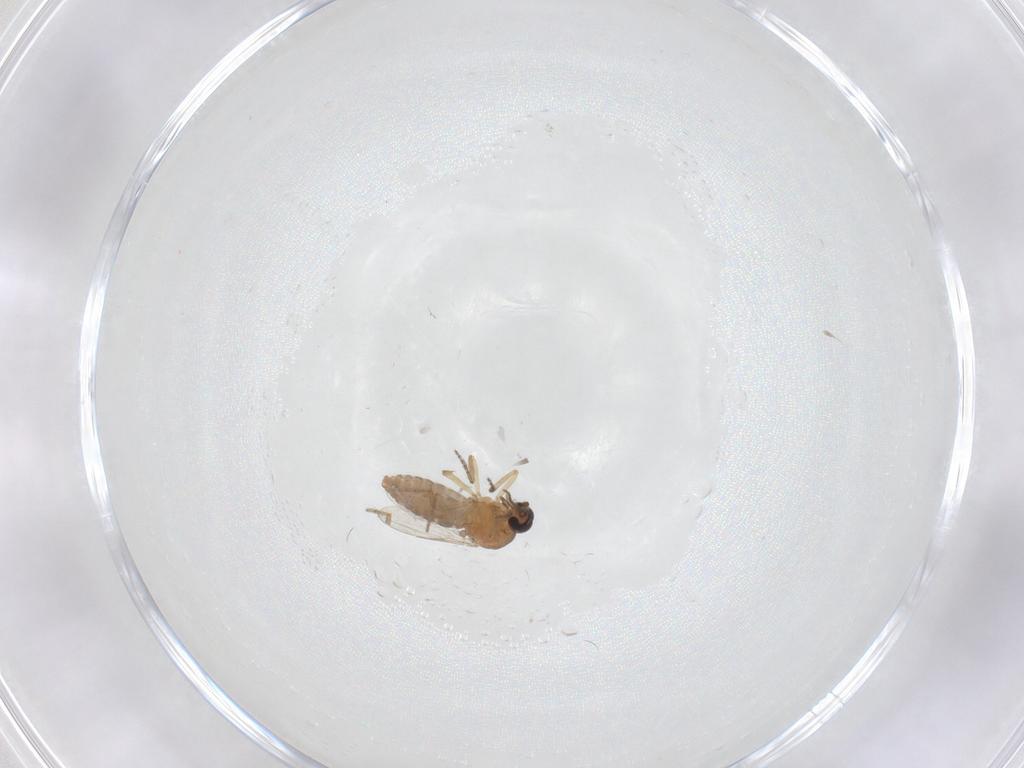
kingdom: Animalia
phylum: Arthropoda
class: Insecta
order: Diptera
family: Ceratopogonidae
